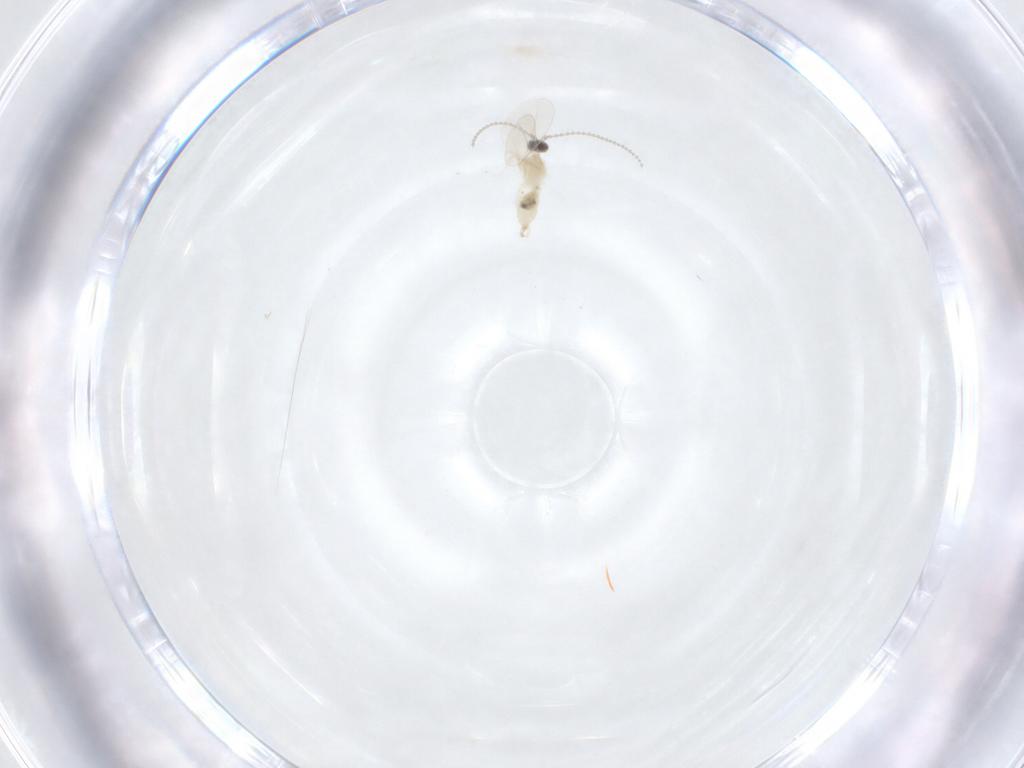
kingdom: Animalia
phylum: Arthropoda
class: Insecta
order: Diptera
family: Cecidomyiidae
